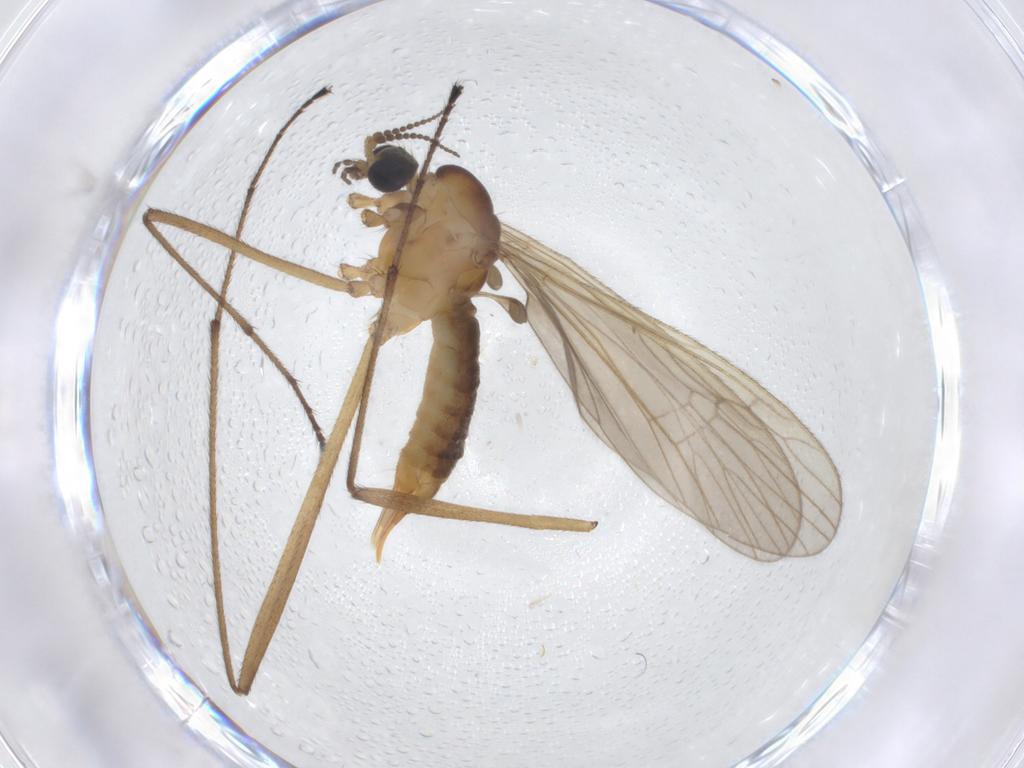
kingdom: Animalia
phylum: Arthropoda
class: Insecta
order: Diptera
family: Limoniidae
